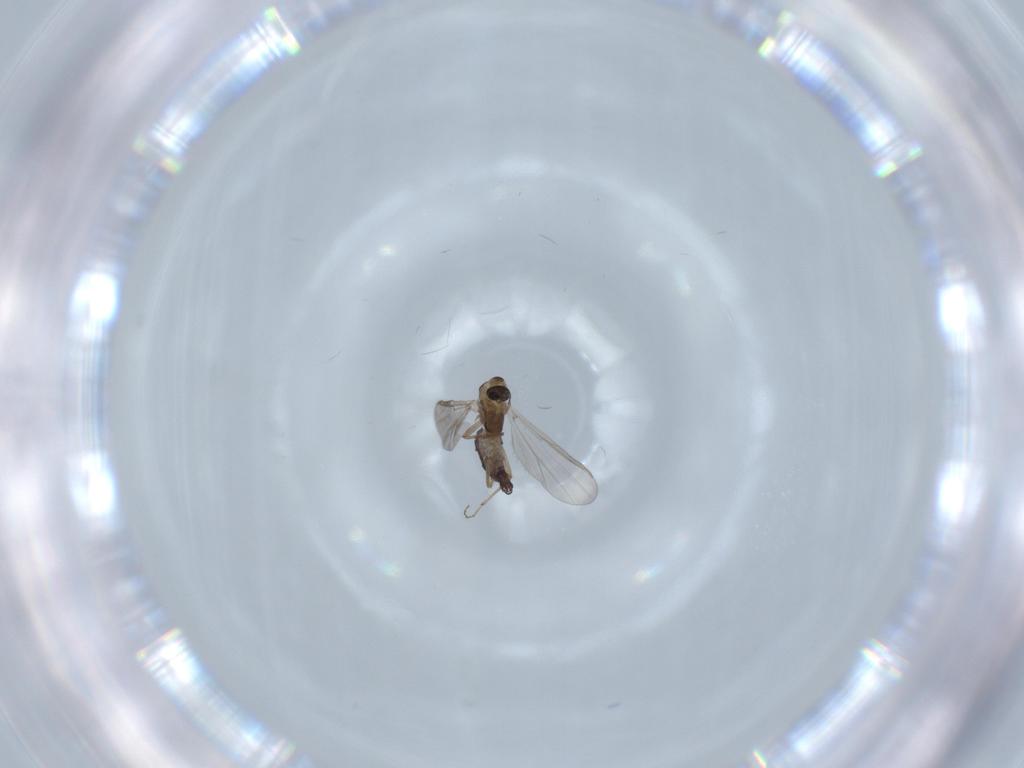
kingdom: Animalia
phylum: Arthropoda
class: Insecta
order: Diptera
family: Chironomidae
